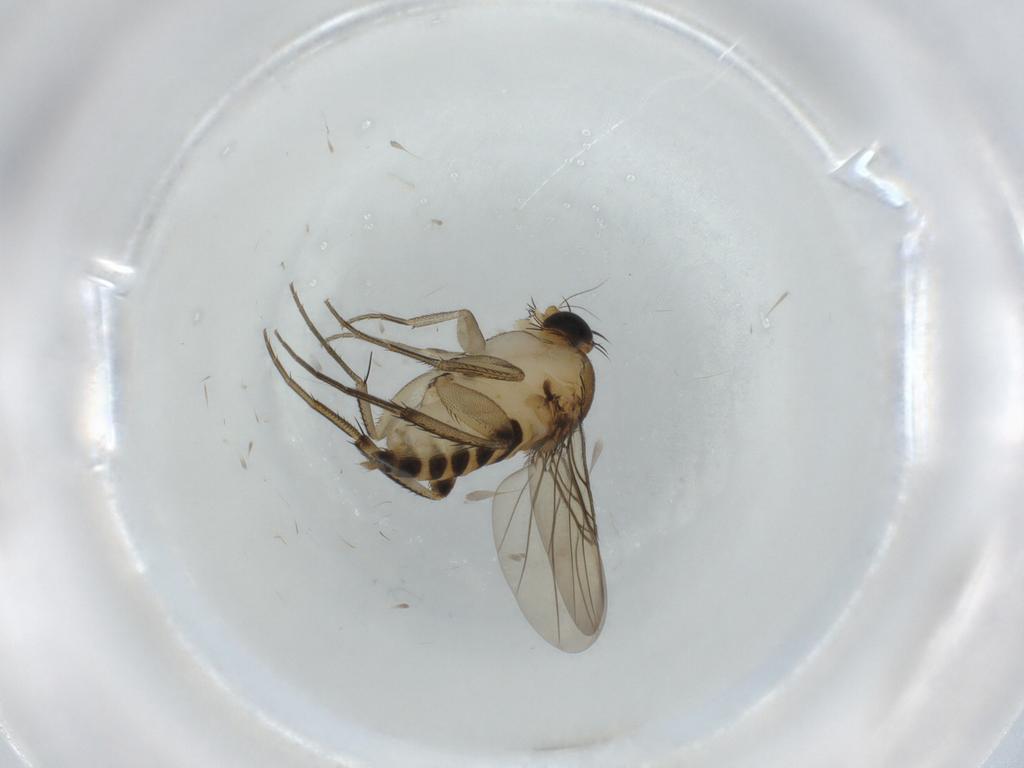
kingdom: Animalia
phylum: Arthropoda
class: Insecta
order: Diptera
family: Phoridae
